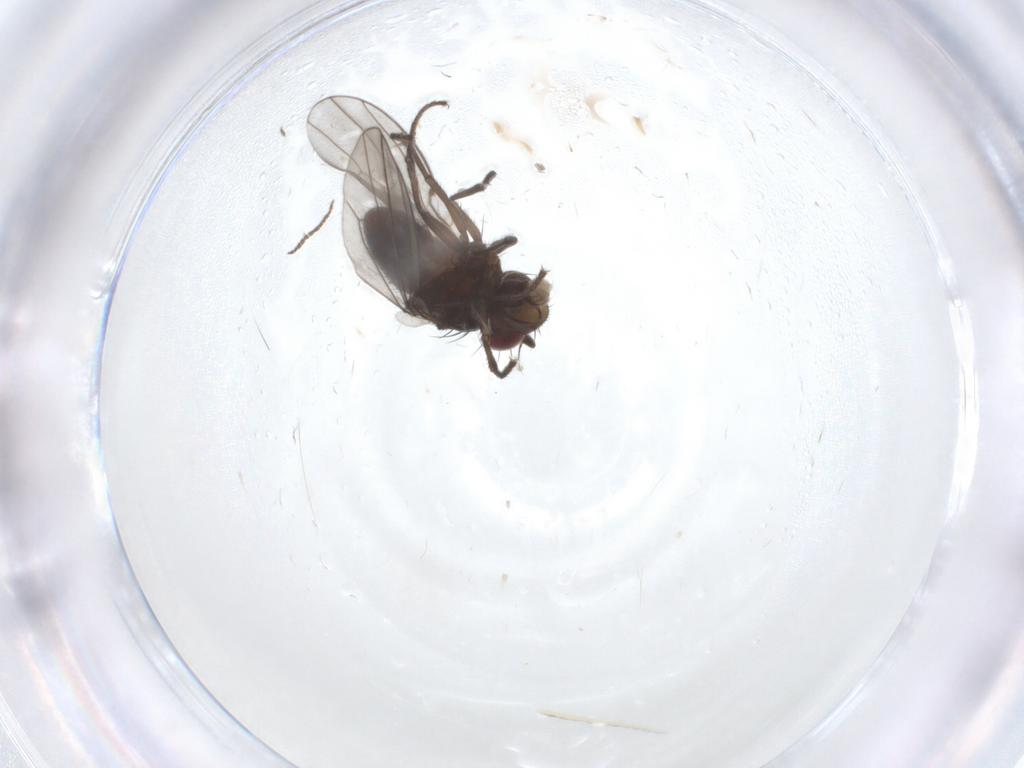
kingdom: Animalia
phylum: Arthropoda
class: Insecta
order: Diptera
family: Ephydridae
